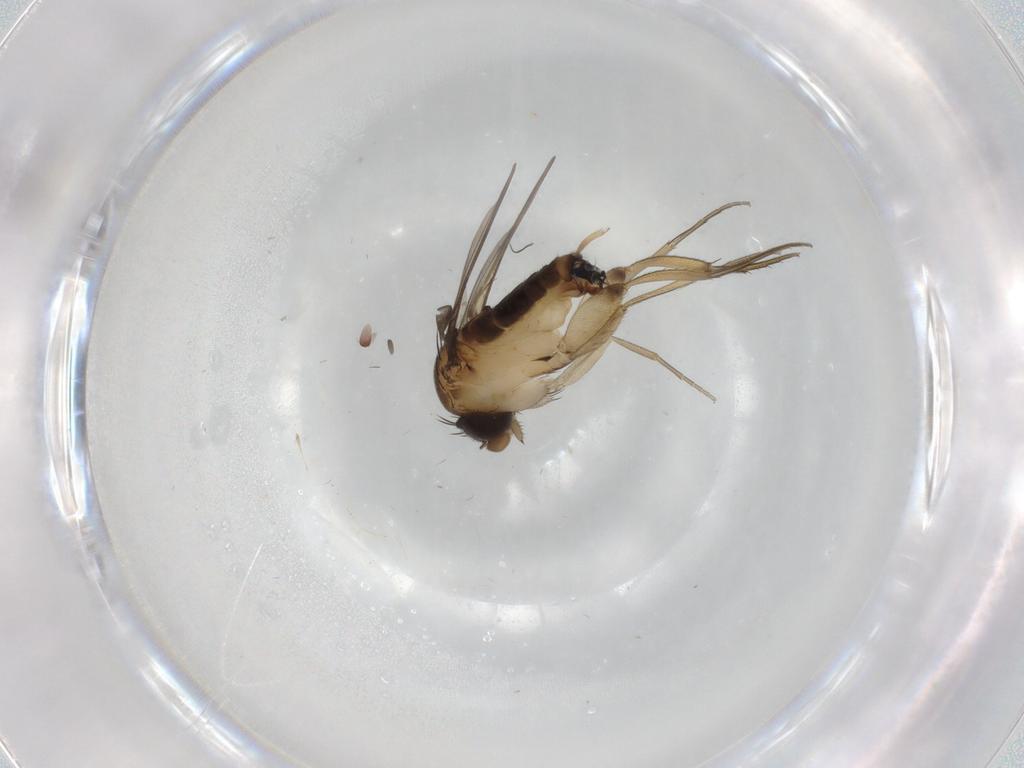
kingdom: Animalia
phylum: Arthropoda
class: Insecta
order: Diptera
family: Phoridae
